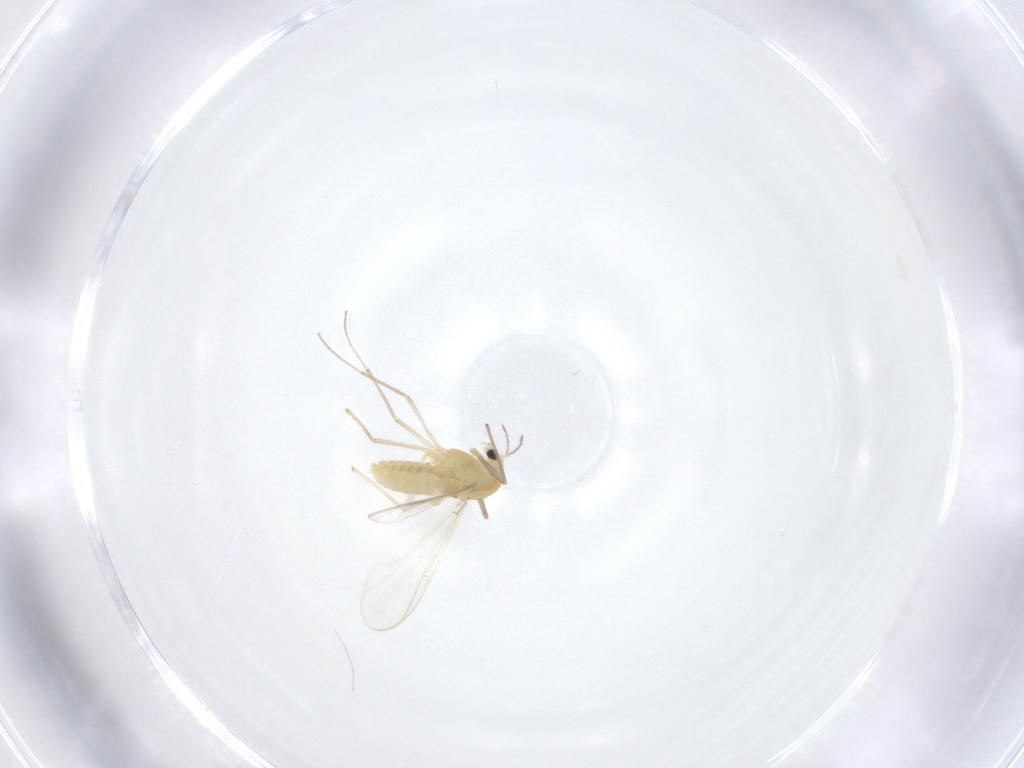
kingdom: Animalia
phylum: Arthropoda
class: Insecta
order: Diptera
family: Chironomidae
